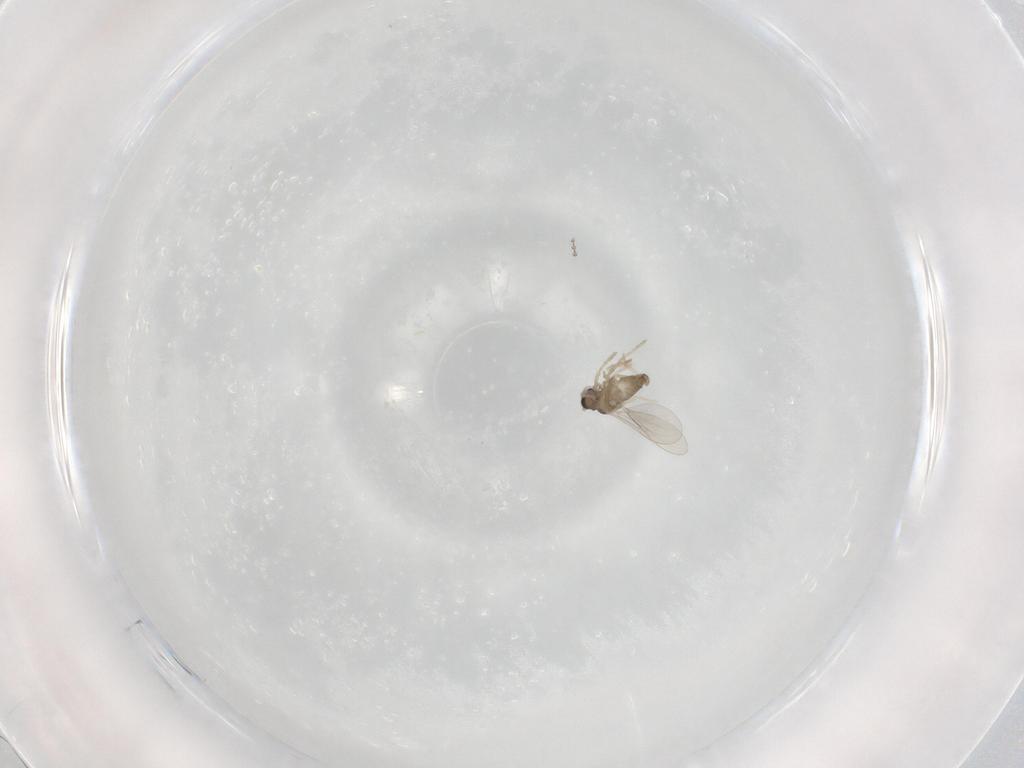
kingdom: Animalia
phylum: Arthropoda
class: Insecta
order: Diptera
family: Cecidomyiidae
